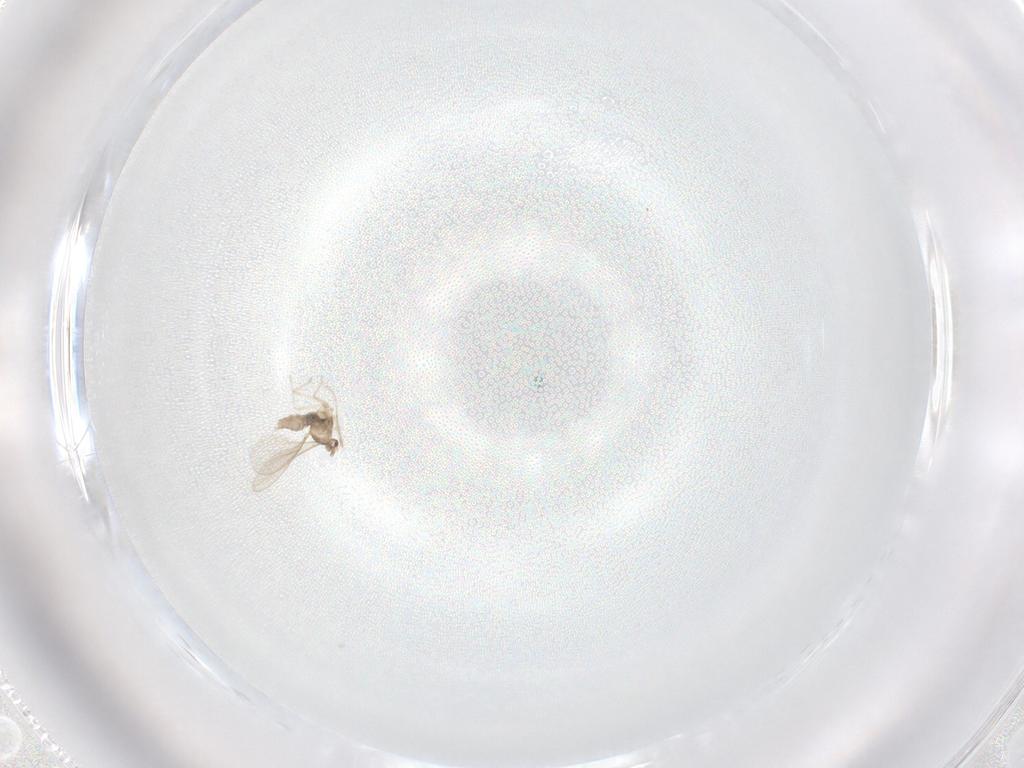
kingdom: Animalia
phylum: Arthropoda
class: Insecta
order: Diptera
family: Cecidomyiidae
